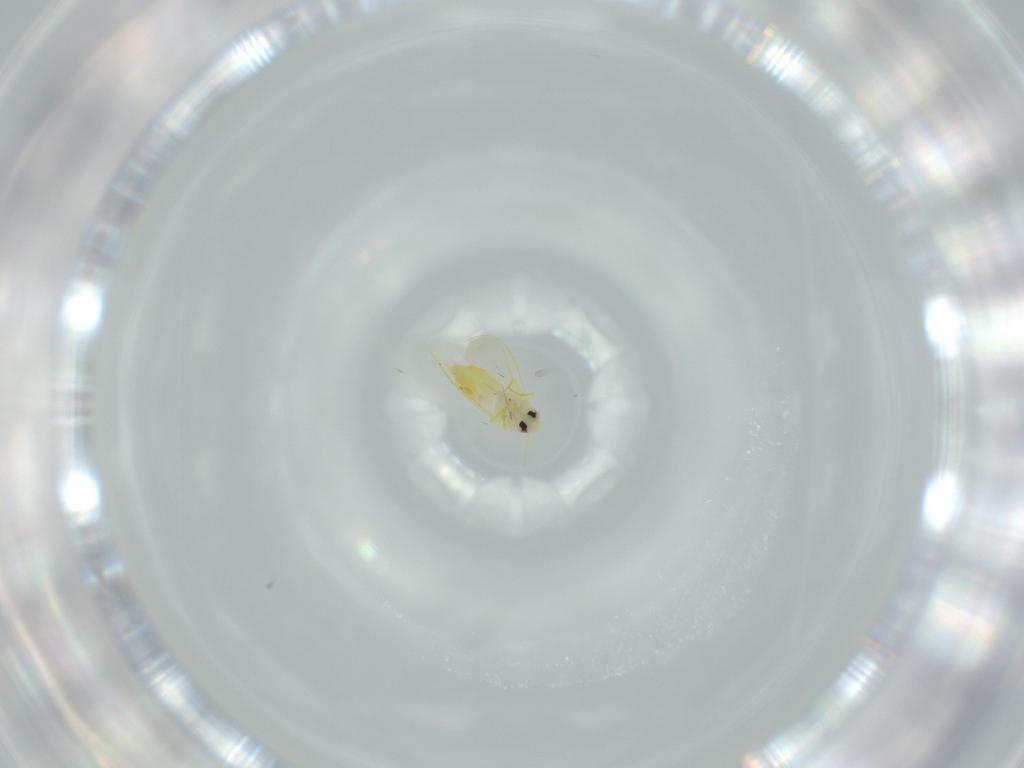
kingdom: Animalia
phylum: Arthropoda
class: Insecta
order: Hemiptera
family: Aleyrodidae
